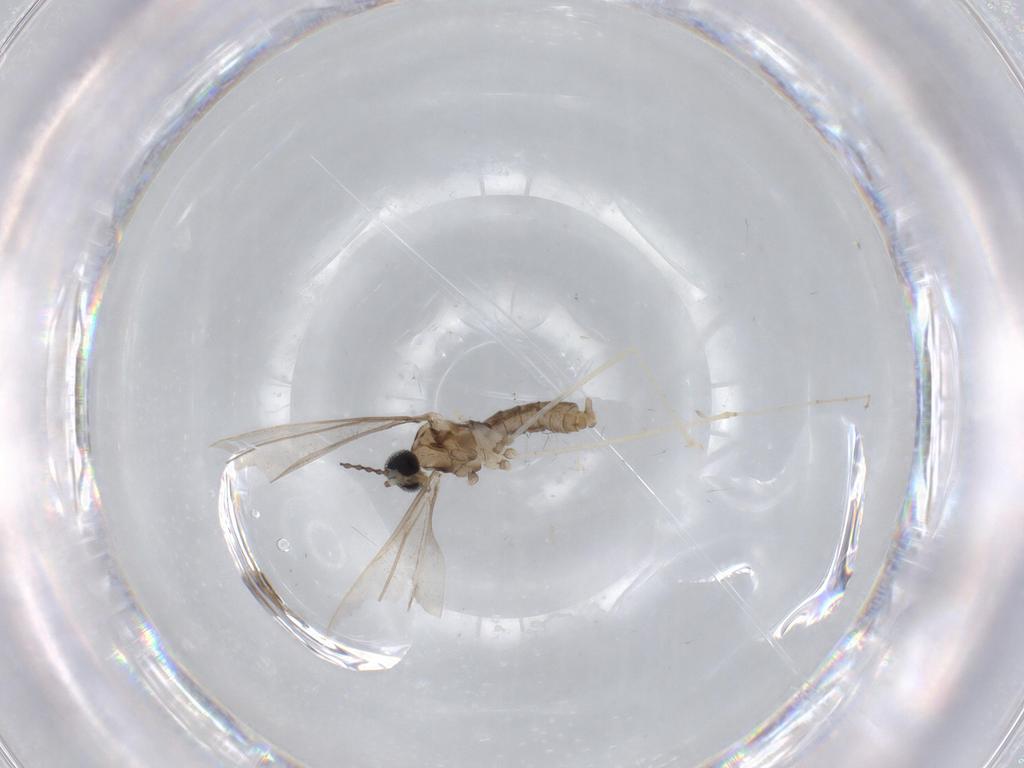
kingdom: Animalia
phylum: Arthropoda
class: Insecta
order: Diptera
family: Cecidomyiidae
